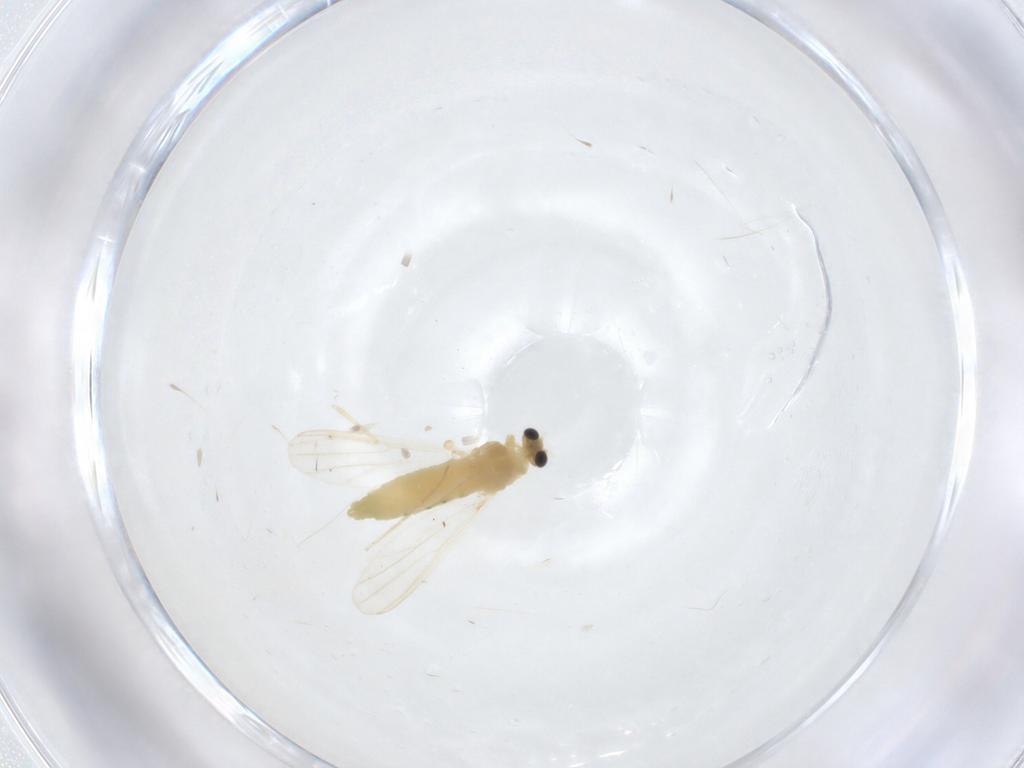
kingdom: Animalia
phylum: Arthropoda
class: Insecta
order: Diptera
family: Chironomidae
